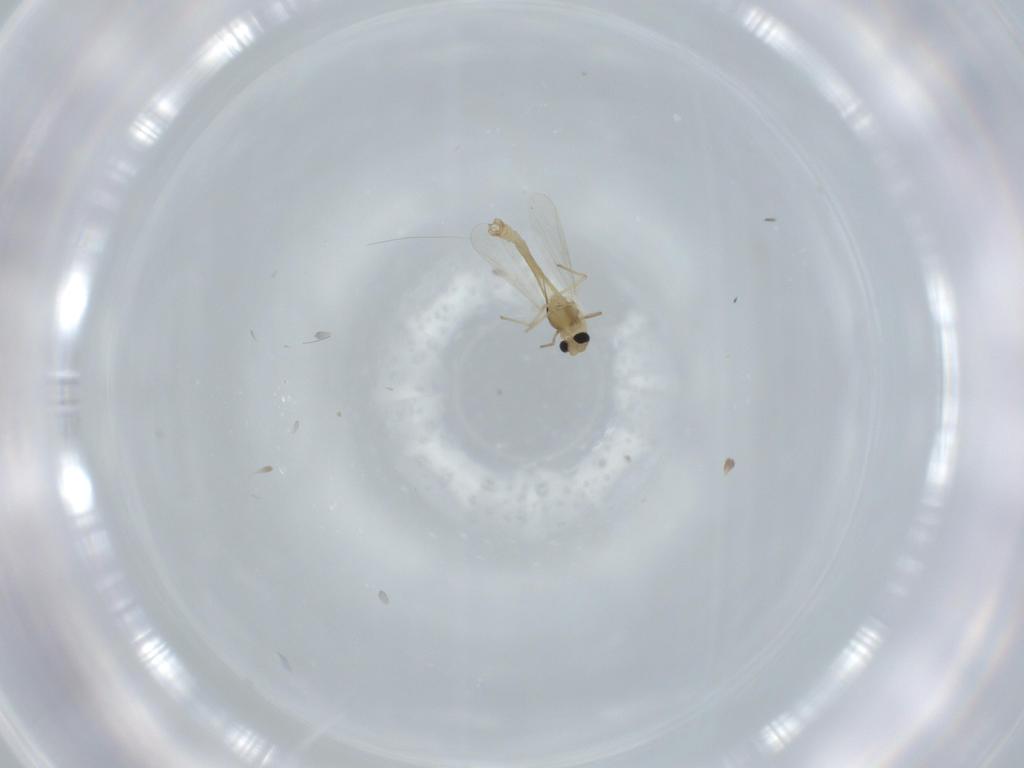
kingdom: Animalia
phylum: Arthropoda
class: Insecta
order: Diptera
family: Chironomidae
